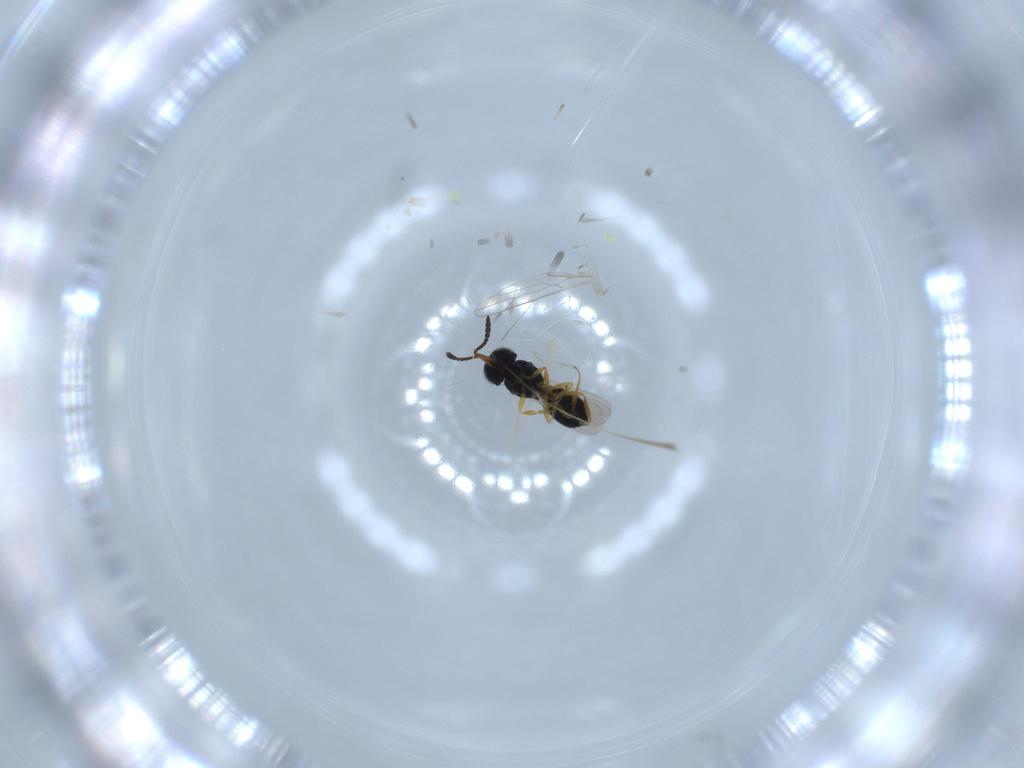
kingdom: Animalia
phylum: Arthropoda
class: Insecta
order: Hymenoptera
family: Scelionidae
